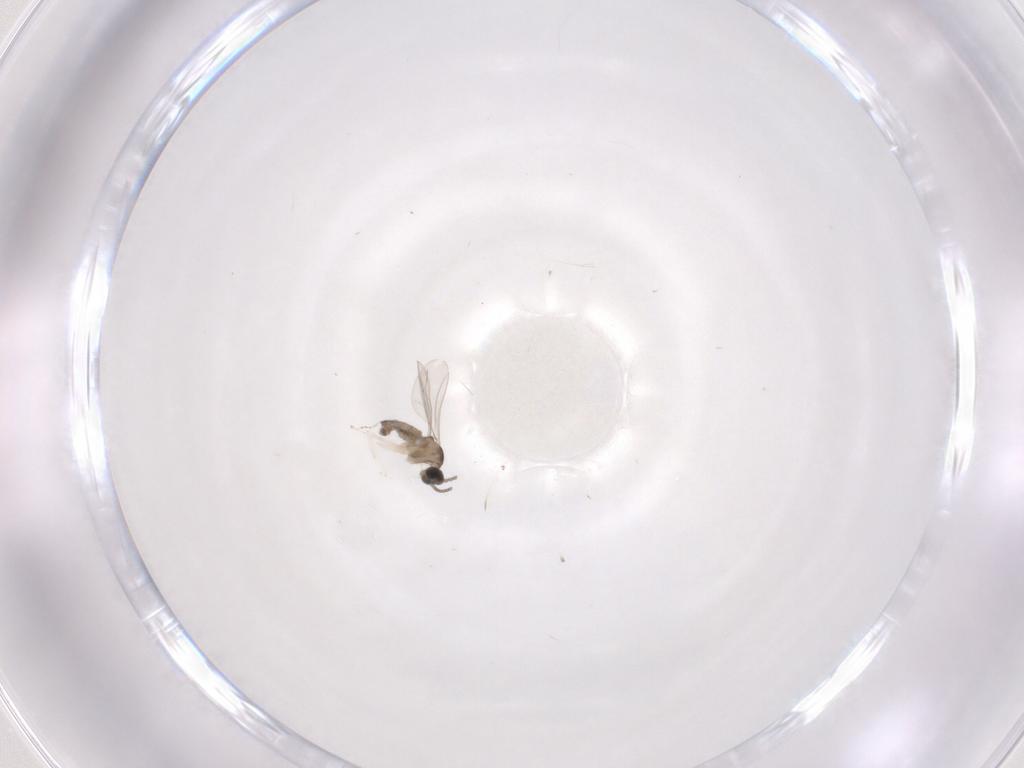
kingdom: Animalia
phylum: Arthropoda
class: Insecta
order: Diptera
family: Cecidomyiidae
